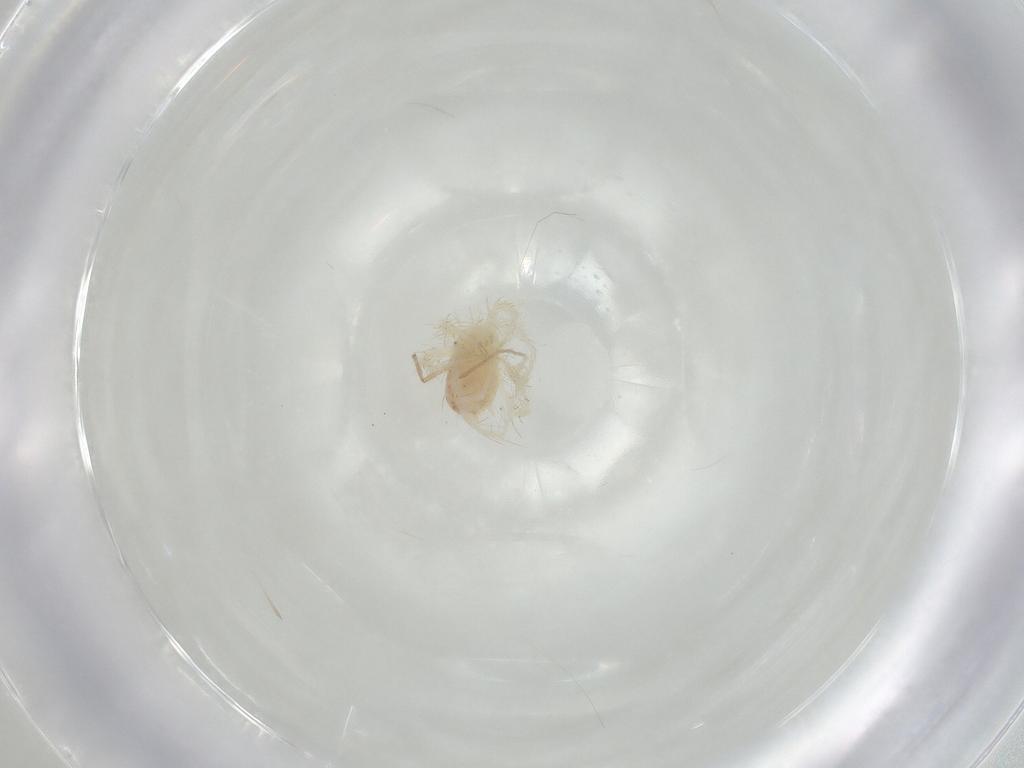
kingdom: Animalia
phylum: Arthropoda
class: Arachnida
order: Trombidiformes
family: Anystidae
